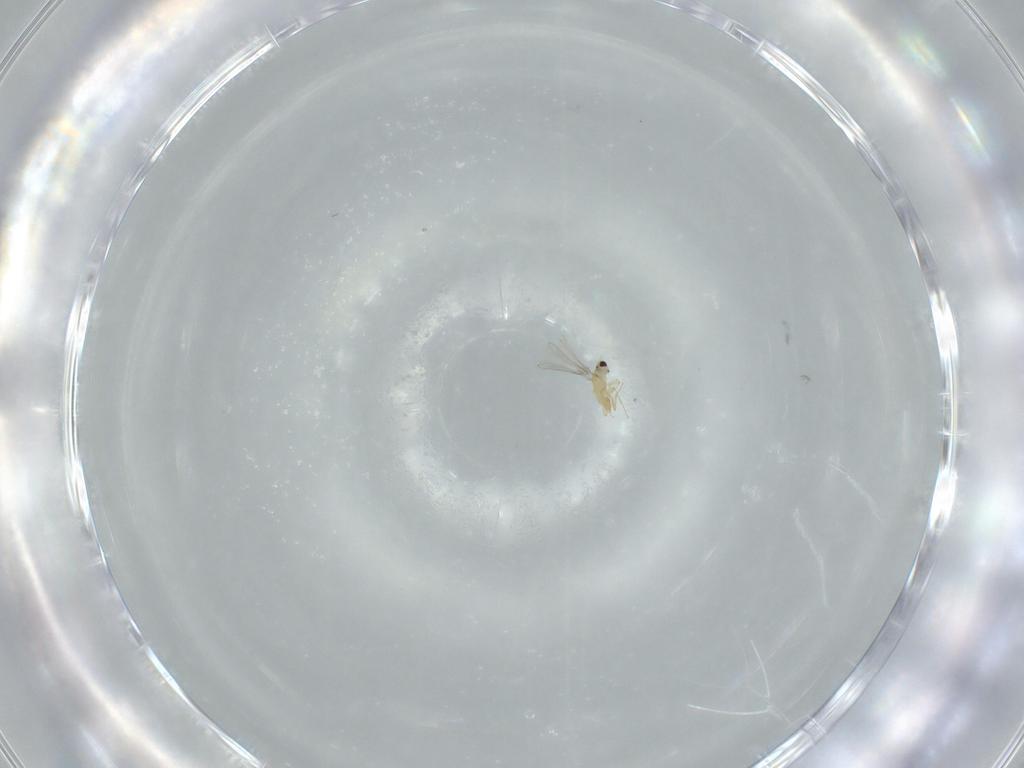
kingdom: Animalia
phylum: Arthropoda
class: Insecta
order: Hymenoptera
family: Mymaridae
